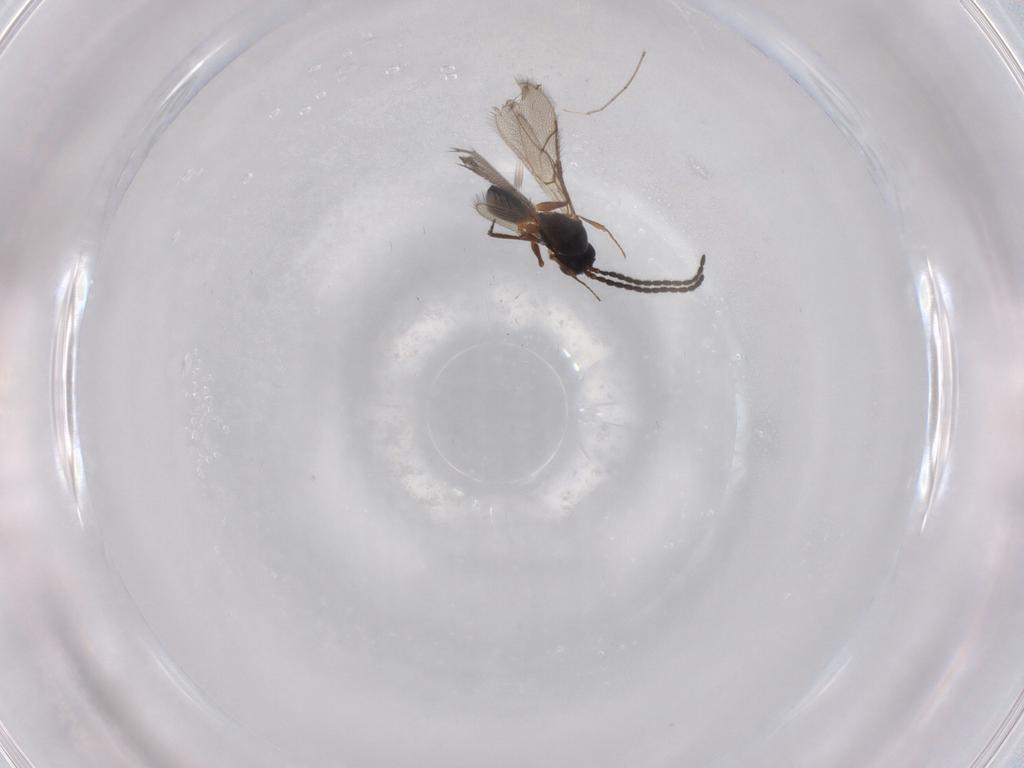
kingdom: Animalia
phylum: Arthropoda
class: Insecta
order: Hymenoptera
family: Figitidae
